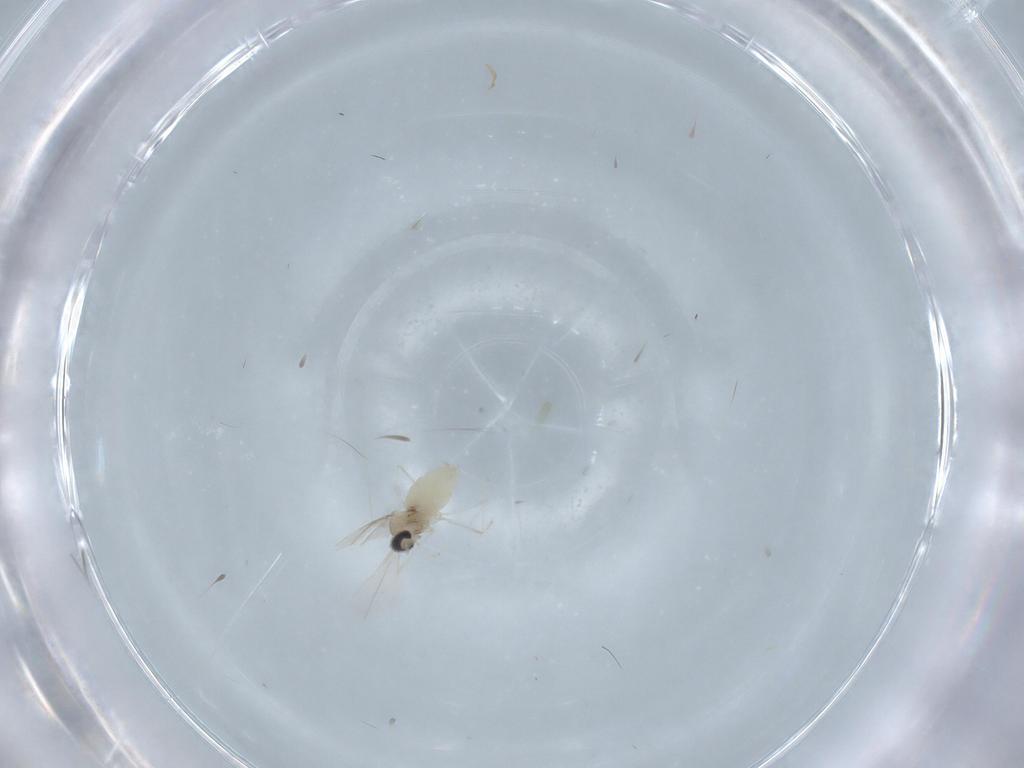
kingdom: Animalia
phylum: Arthropoda
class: Insecta
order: Diptera
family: Cecidomyiidae
